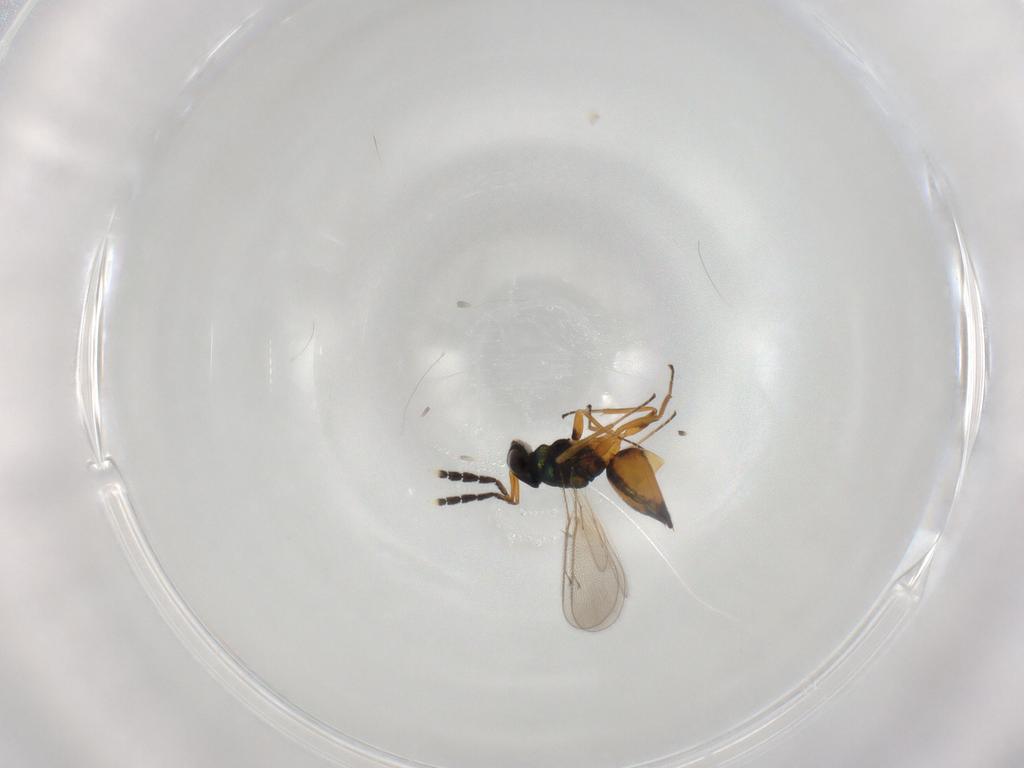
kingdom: Animalia
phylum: Arthropoda
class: Insecta
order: Hymenoptera
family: Eulophidae
